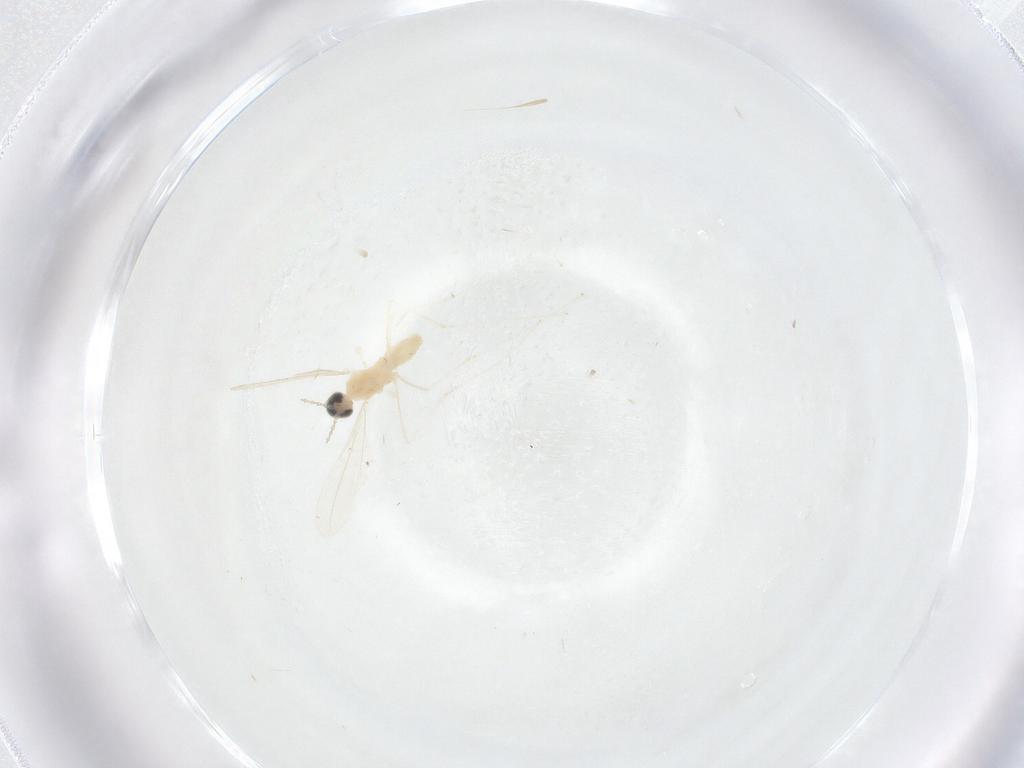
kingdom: Animalia
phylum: Arthropoda
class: Insecta
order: Diptera
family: Cecidomyiidae
